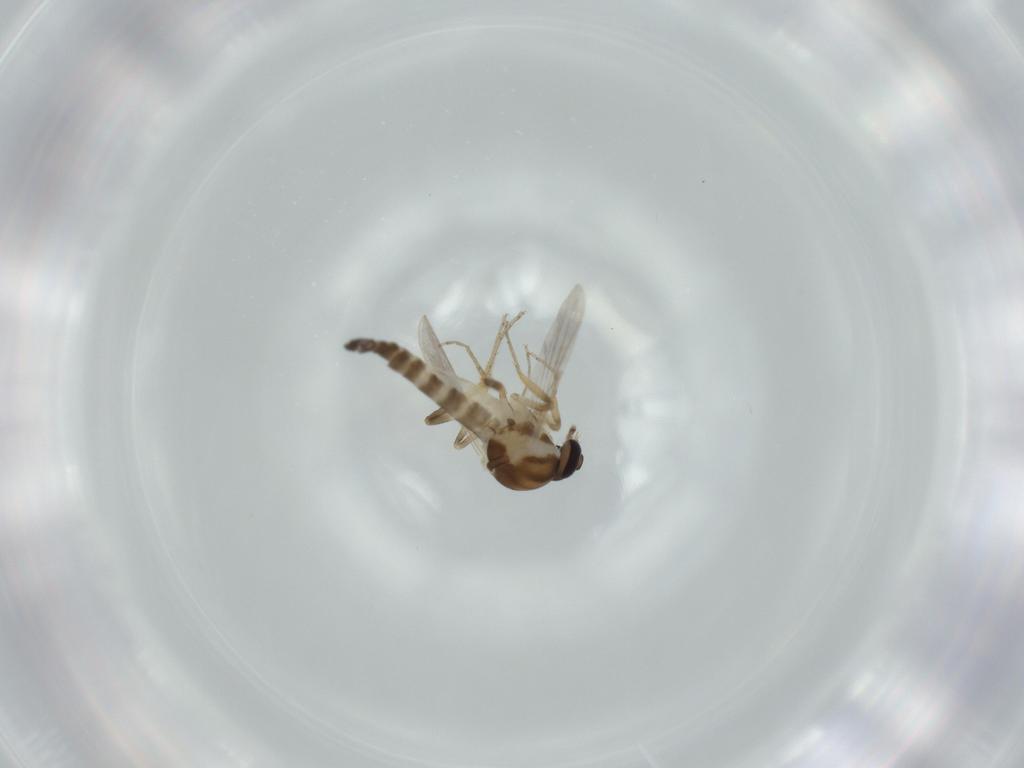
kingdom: Animalia
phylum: Arthropoda
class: Insecta
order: Diptera
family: Ceratopogonidae
